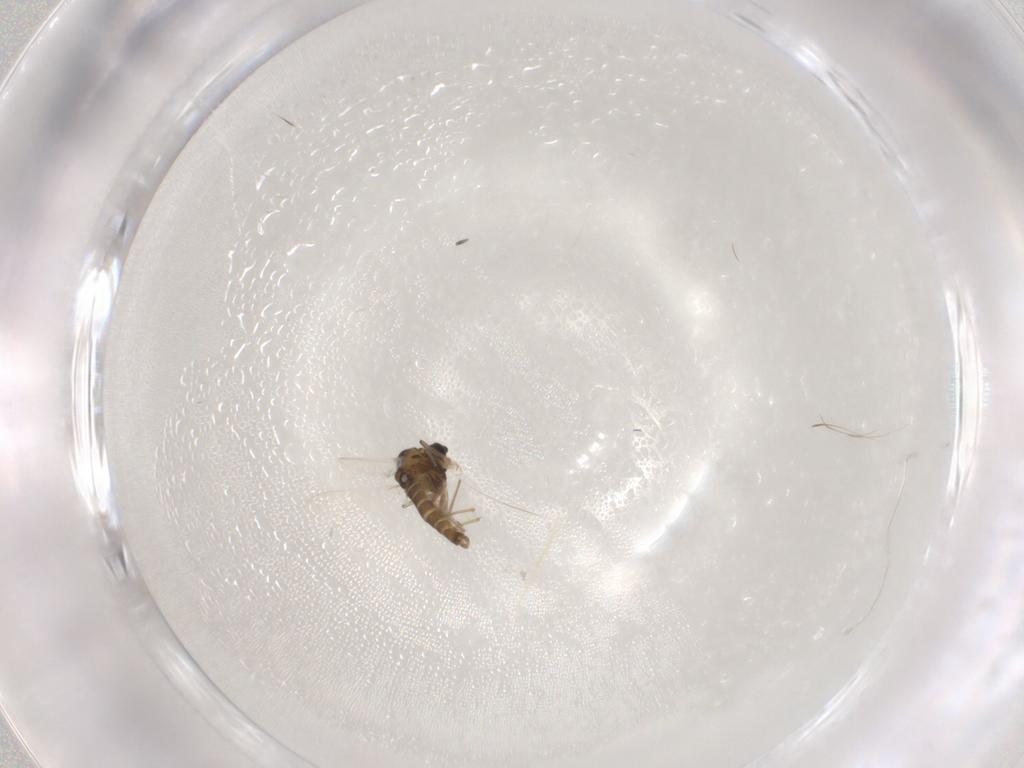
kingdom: Animalia
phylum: Arthropoda
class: Insecta
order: Diptera
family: Chironomidae
